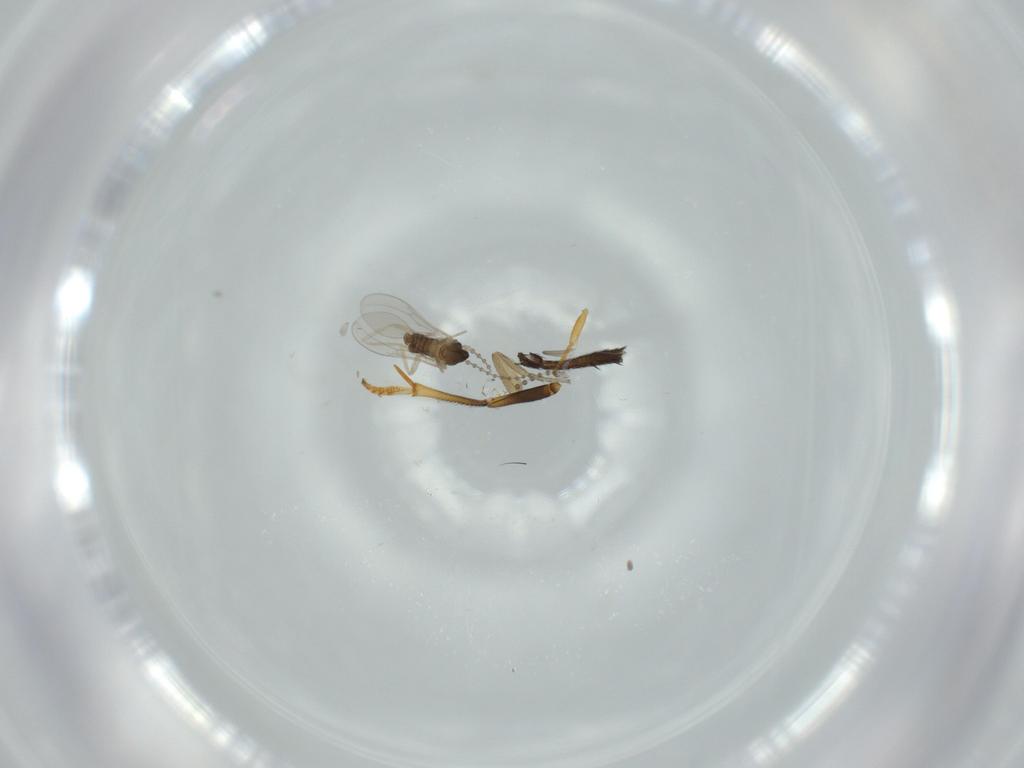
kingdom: Animalia
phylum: Arthropoda
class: Insecta
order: Diptera
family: Cecidomyiidae
